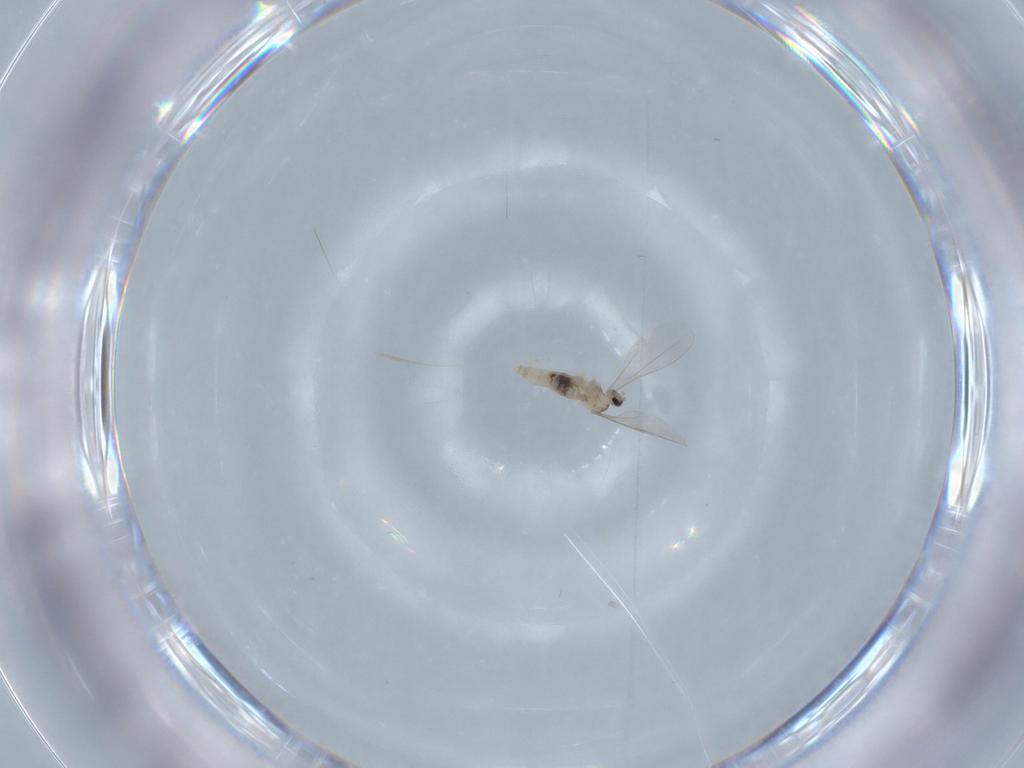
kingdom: Animalia
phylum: Arthropoda
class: Insecta
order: Diptera
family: Cecidomyiidae
